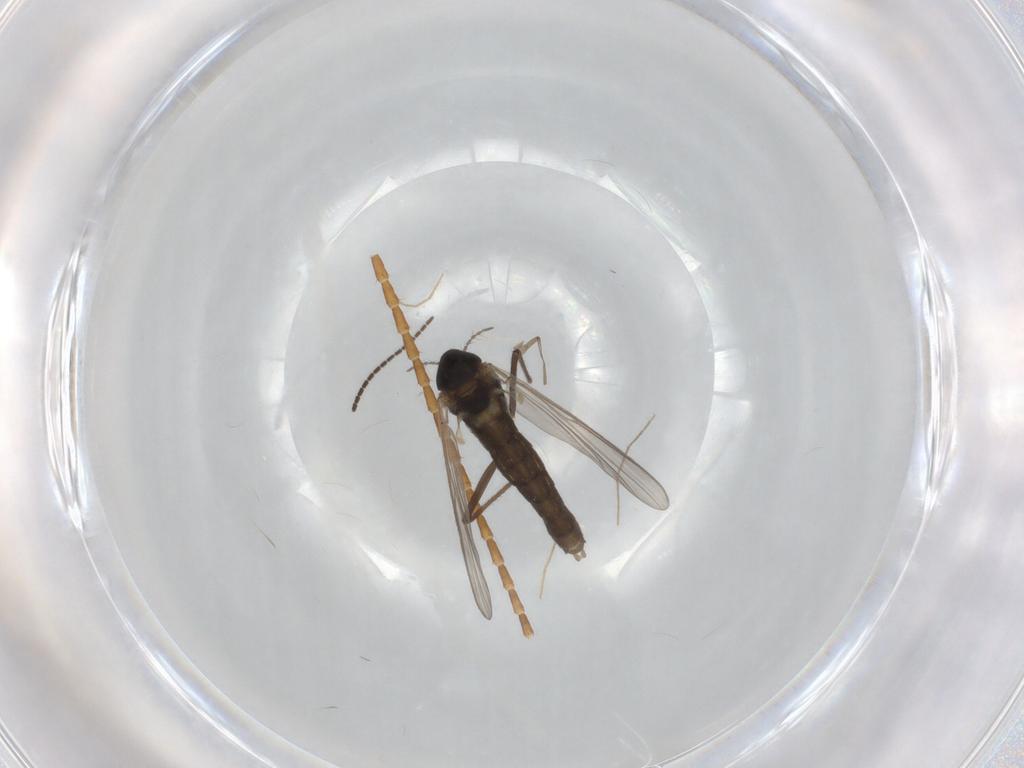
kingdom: Animalia
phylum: Arthropoda
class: Insecta
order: Diptera
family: Chironomidae
